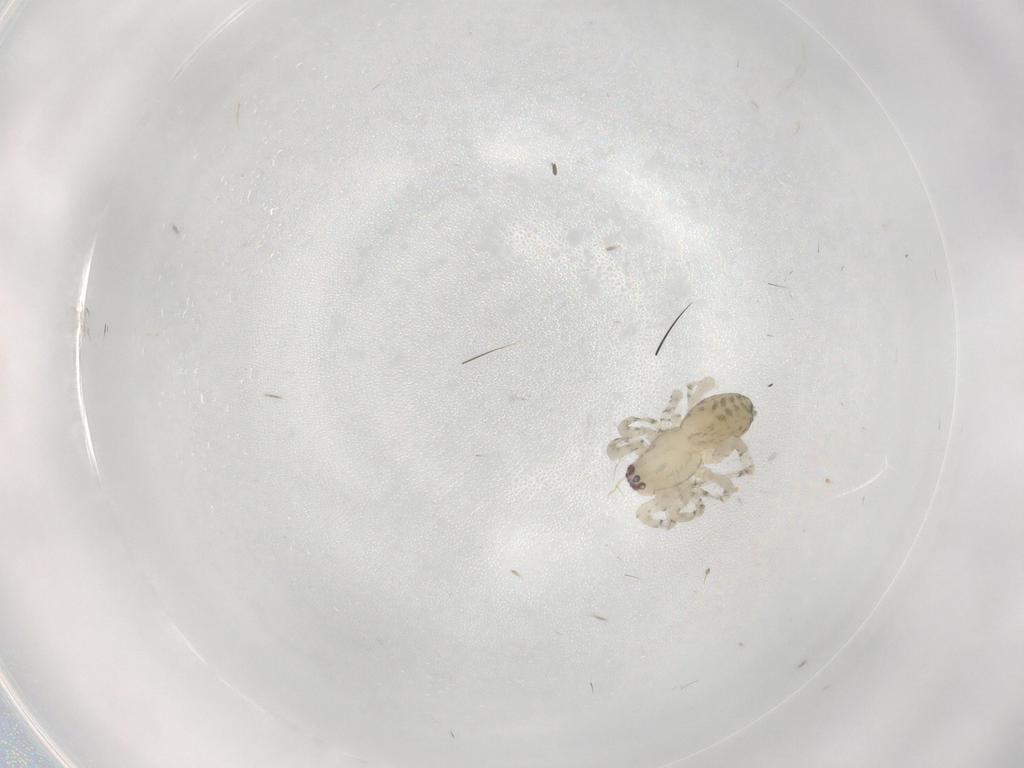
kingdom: Animalia
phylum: Arthropoda
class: Arachnida
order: Araneae
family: Anyphaenidae
